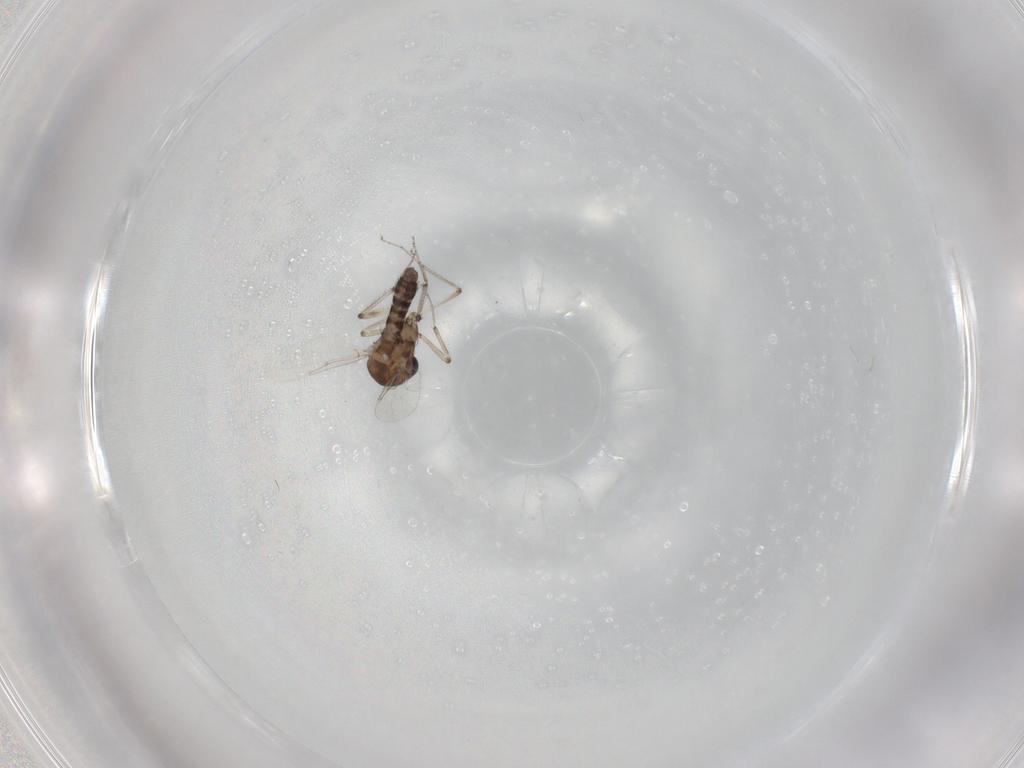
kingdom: Animalia
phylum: Arthropoda
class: Insecta
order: Diptera
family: Ceratopogonidae
